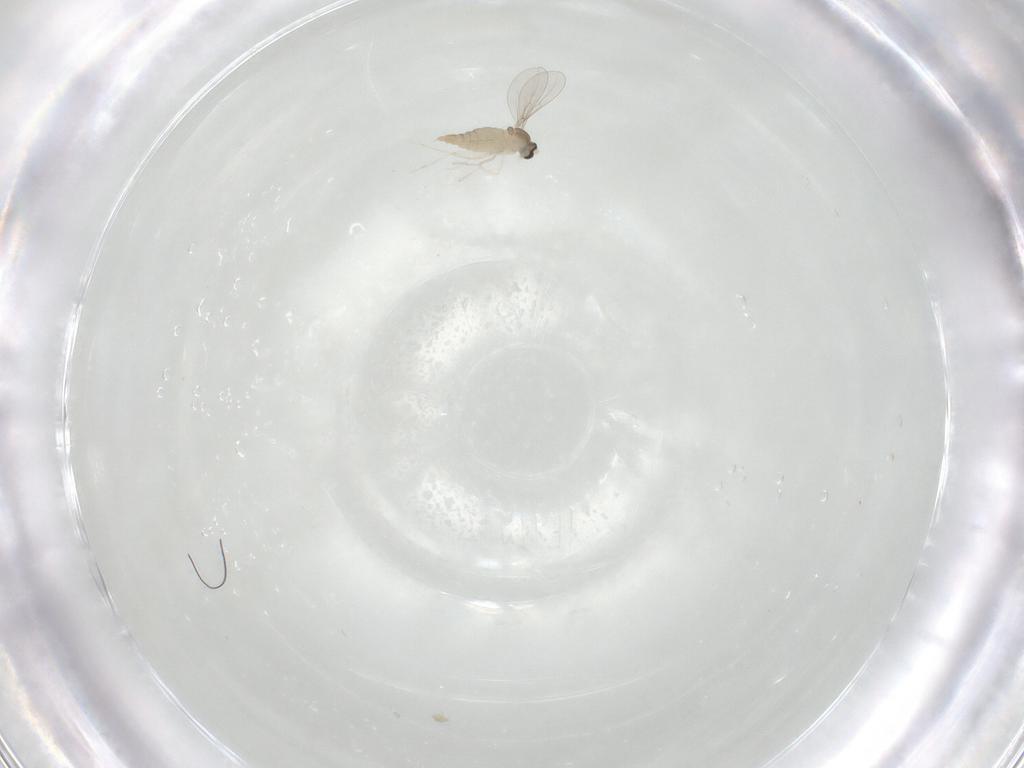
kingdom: Animalia
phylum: Arthropoda
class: Insecta
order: Diptera
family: Cecidomyiidae
